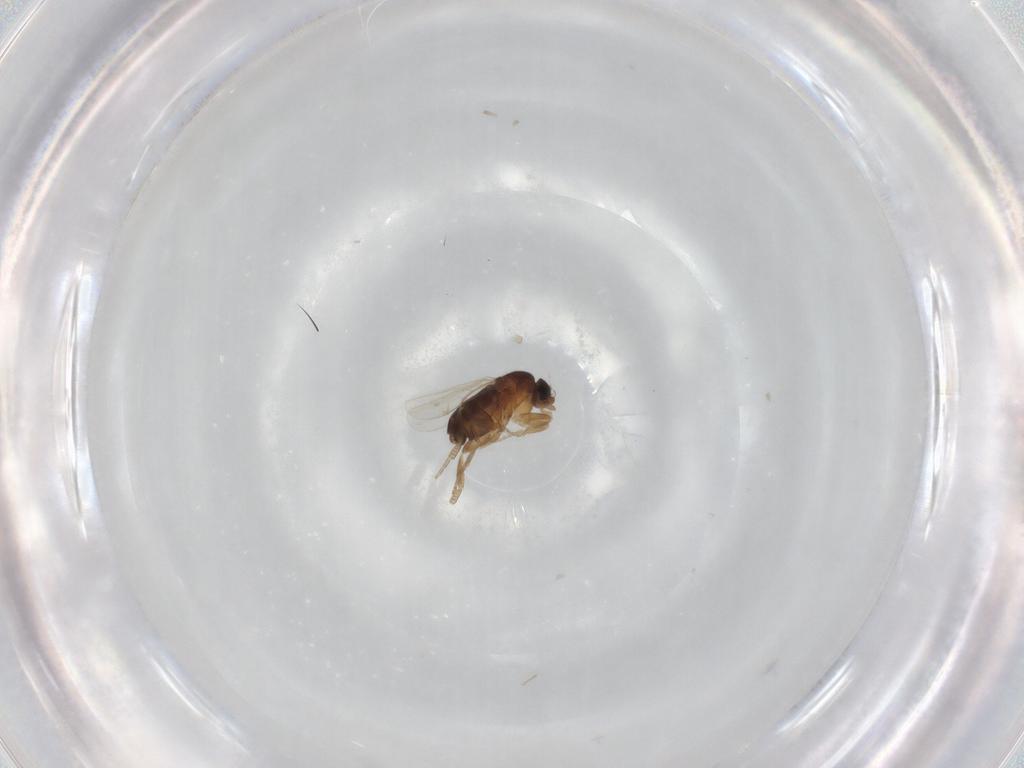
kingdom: Animalia
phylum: Arthropoda
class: Insecta
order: Diptera
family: Phoridae
